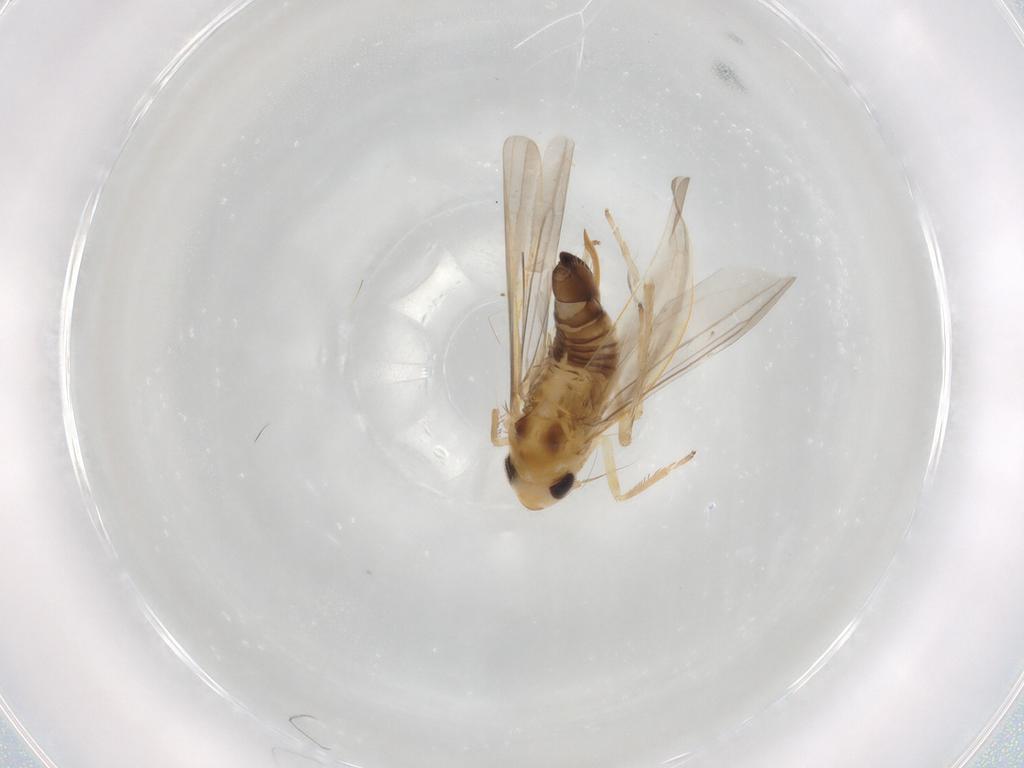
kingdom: Animalia
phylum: Arthropoda
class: Insecta
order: Hemiptera
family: Cicadellidae
